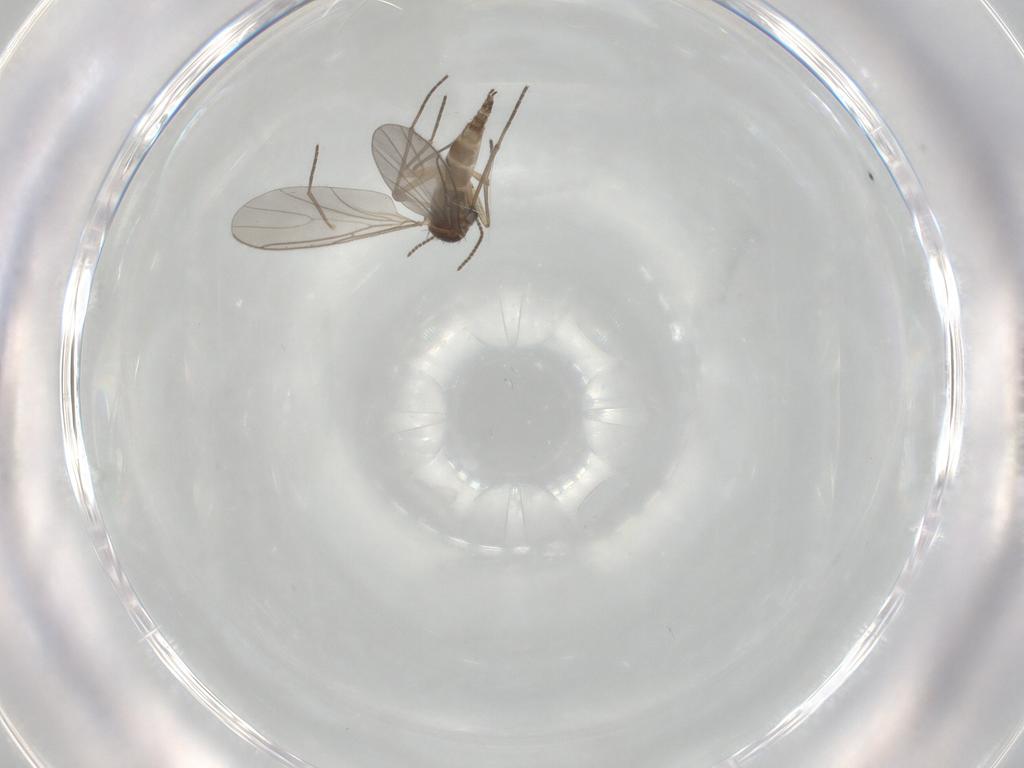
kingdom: Animalia
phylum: Arthropoda
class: Insecta
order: Diptera
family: Sciaridae
